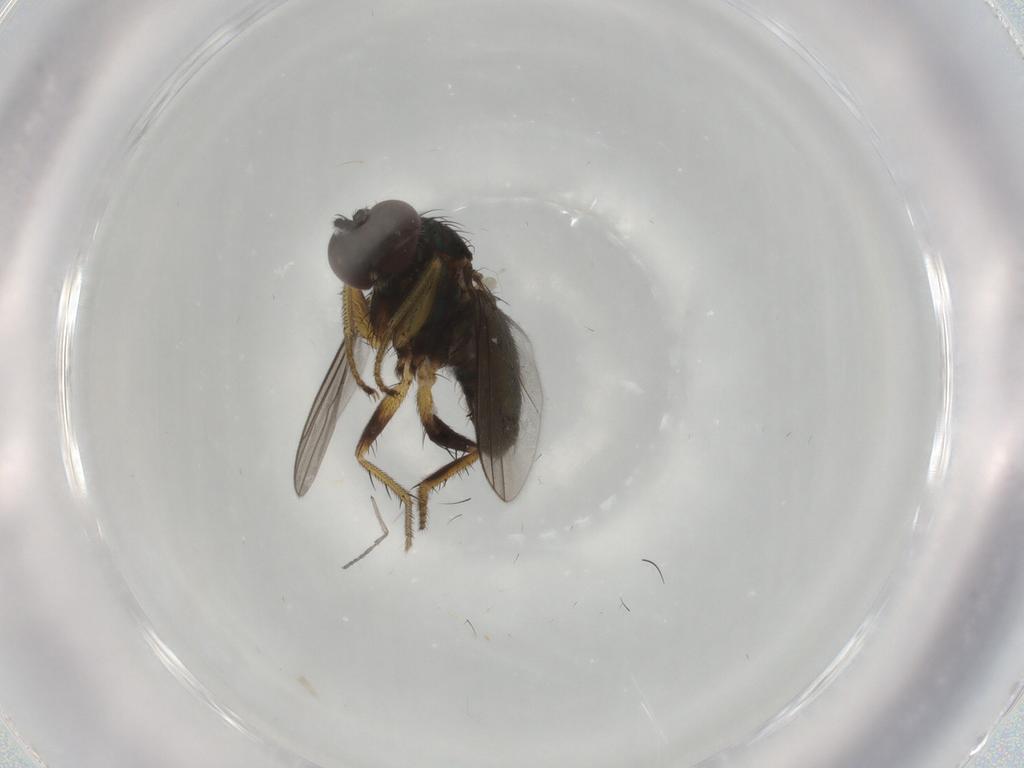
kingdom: Animalia
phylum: Arthropoda
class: Insecta
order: Diptera
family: Dolichopodidae
